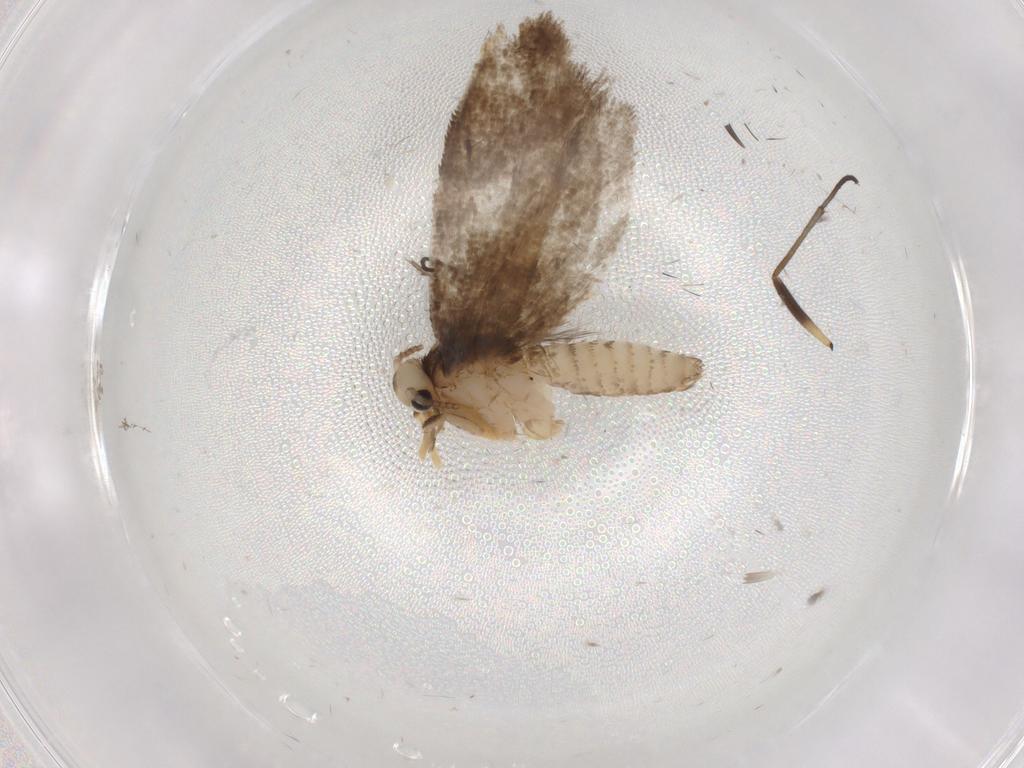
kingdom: Animalia
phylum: Arthropoda
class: Insecta
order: Lepidoptera
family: Psychidae
